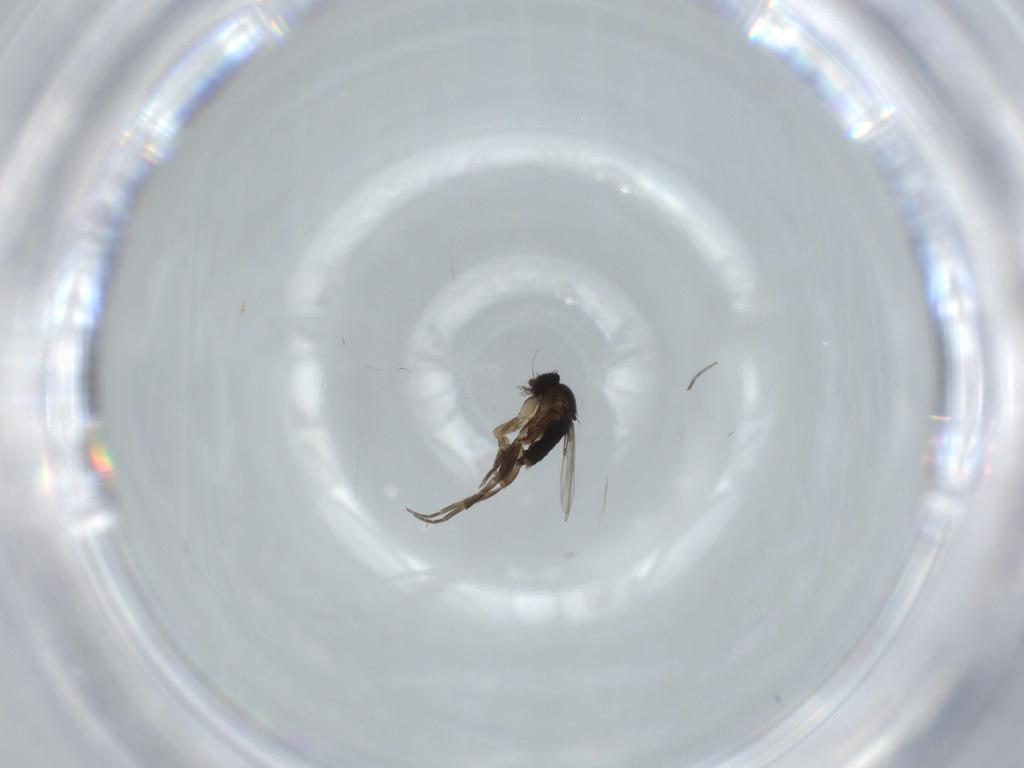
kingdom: Animalia
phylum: Arthropoda
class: Insecta
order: Diptera
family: Phoridae
